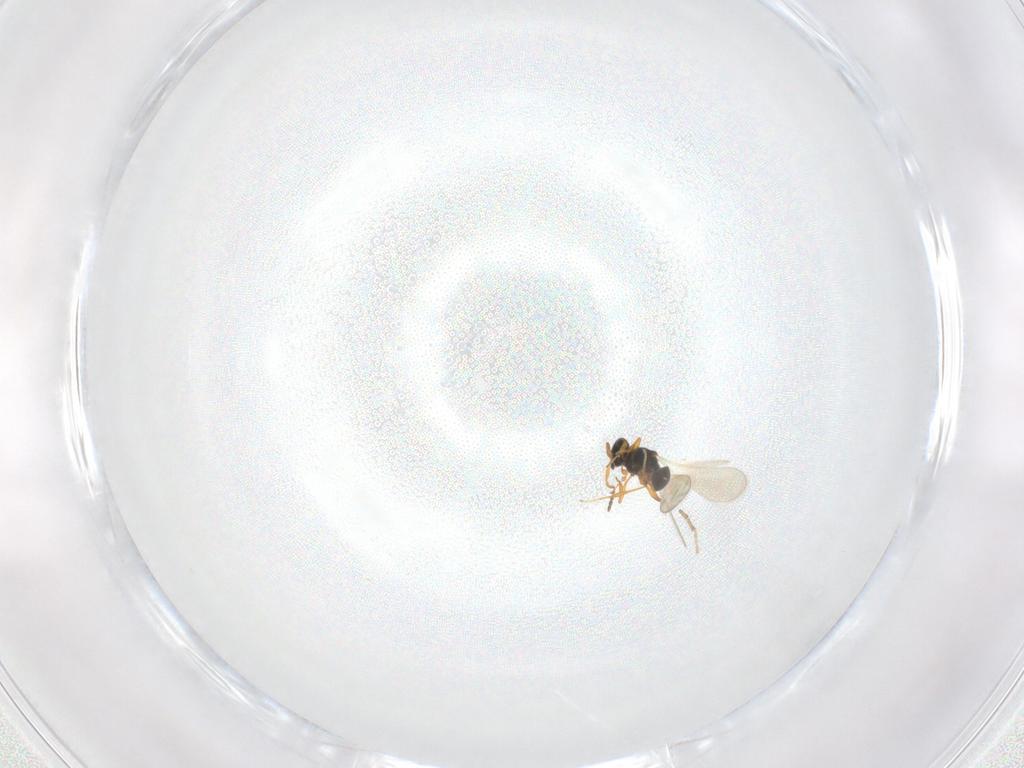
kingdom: Animalia
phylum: Arthropoda
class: Insecta
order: Hymenoptera
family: Platygastridae
